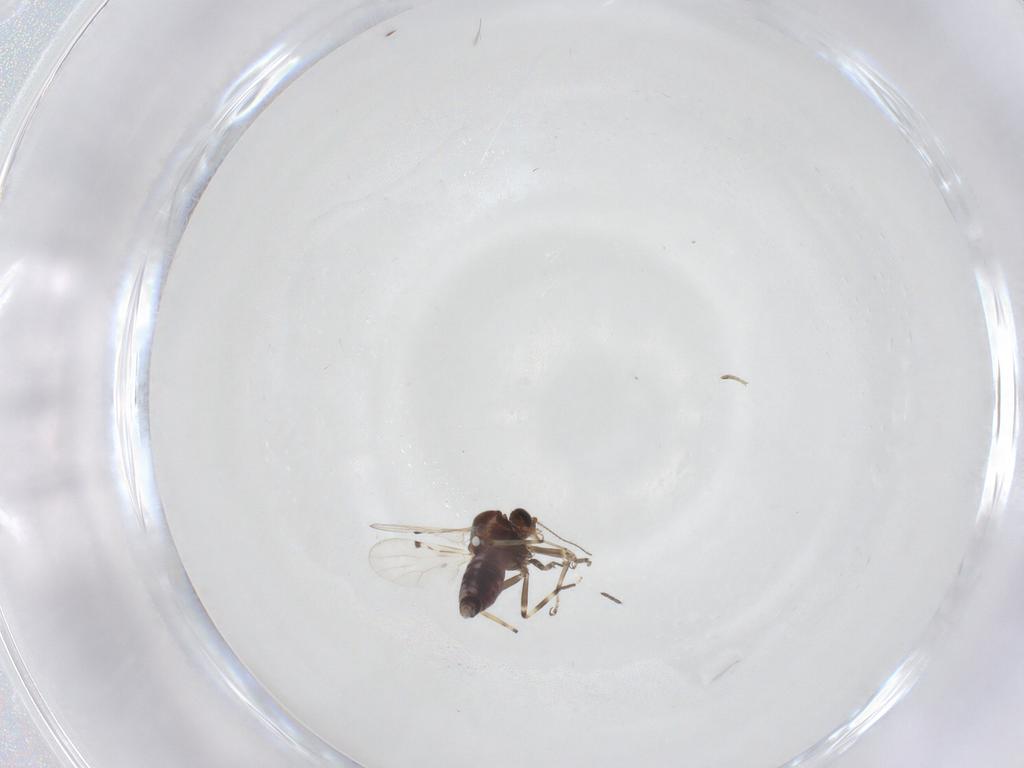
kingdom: Animalia
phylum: Arthropoda
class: Insecta
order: Diptera
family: Ceratopogonidae
